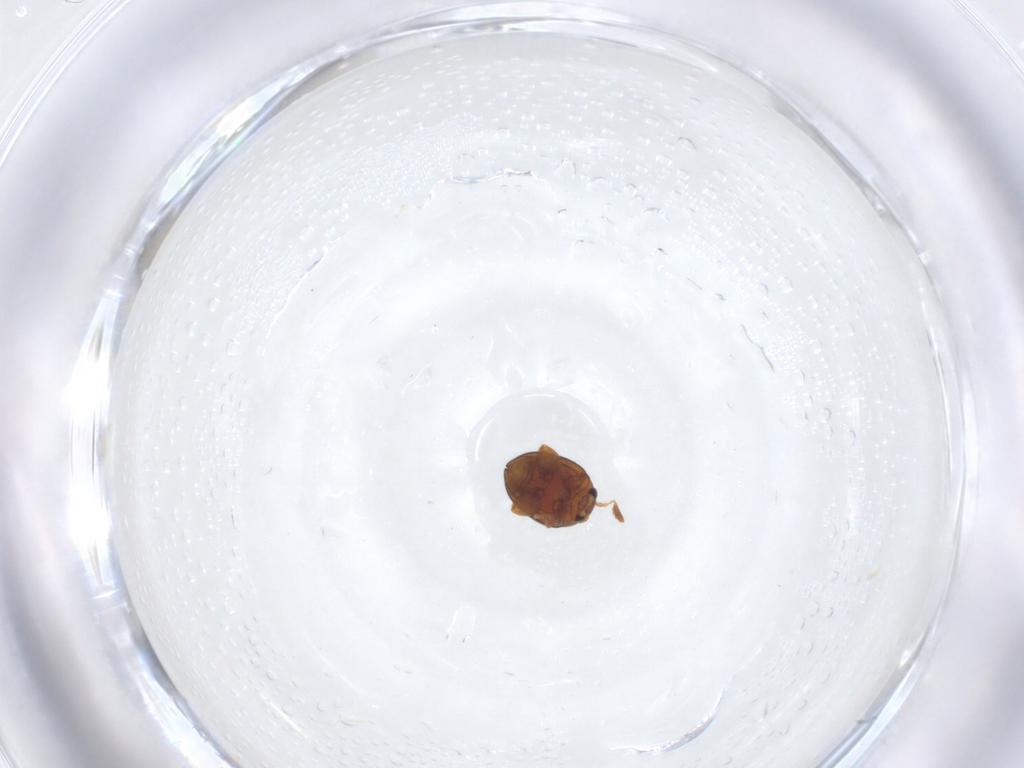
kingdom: Animalia
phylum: Arthropoda
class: Insecta
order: Coleoptera
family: Chrysomelidae
